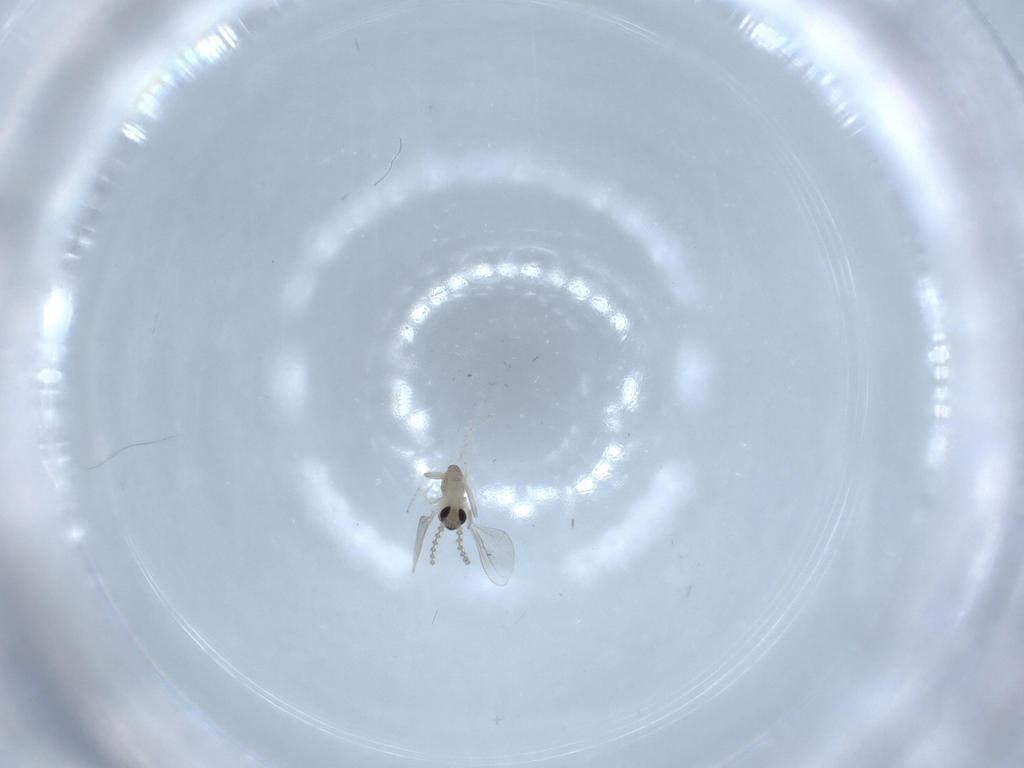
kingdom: Animalia
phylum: Arthropoda
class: Insecta
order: Diptera
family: Cecidomyiidae
